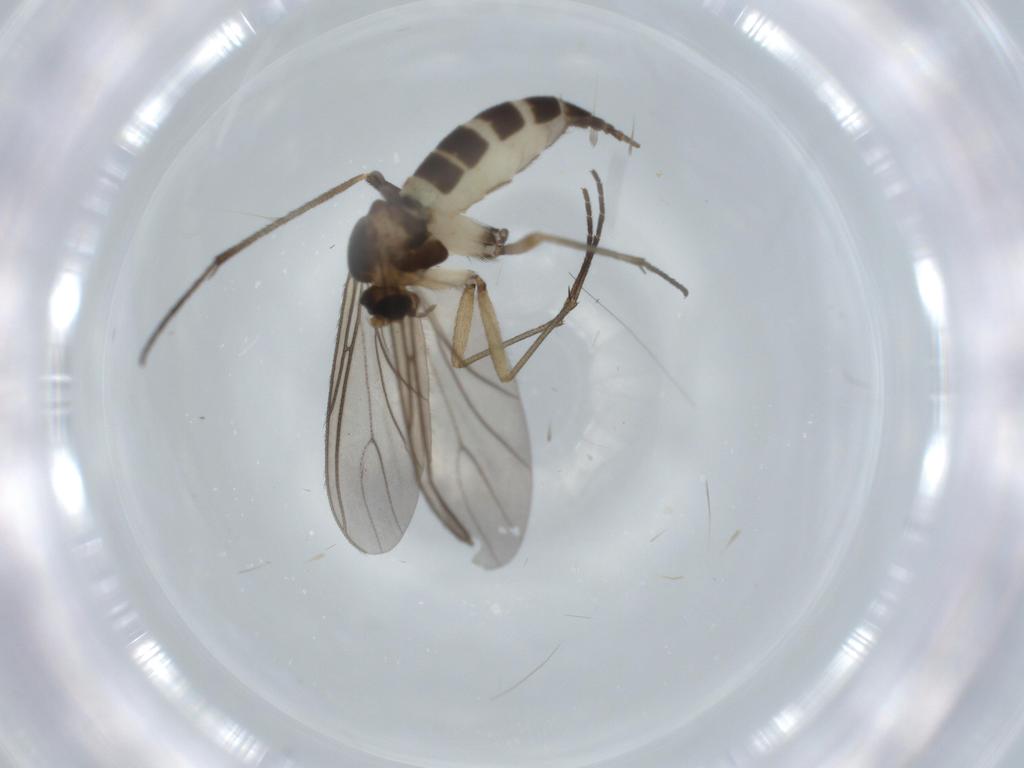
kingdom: Animalia
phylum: Arthropoda
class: Insecta
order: Diptera
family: Sciaridae
